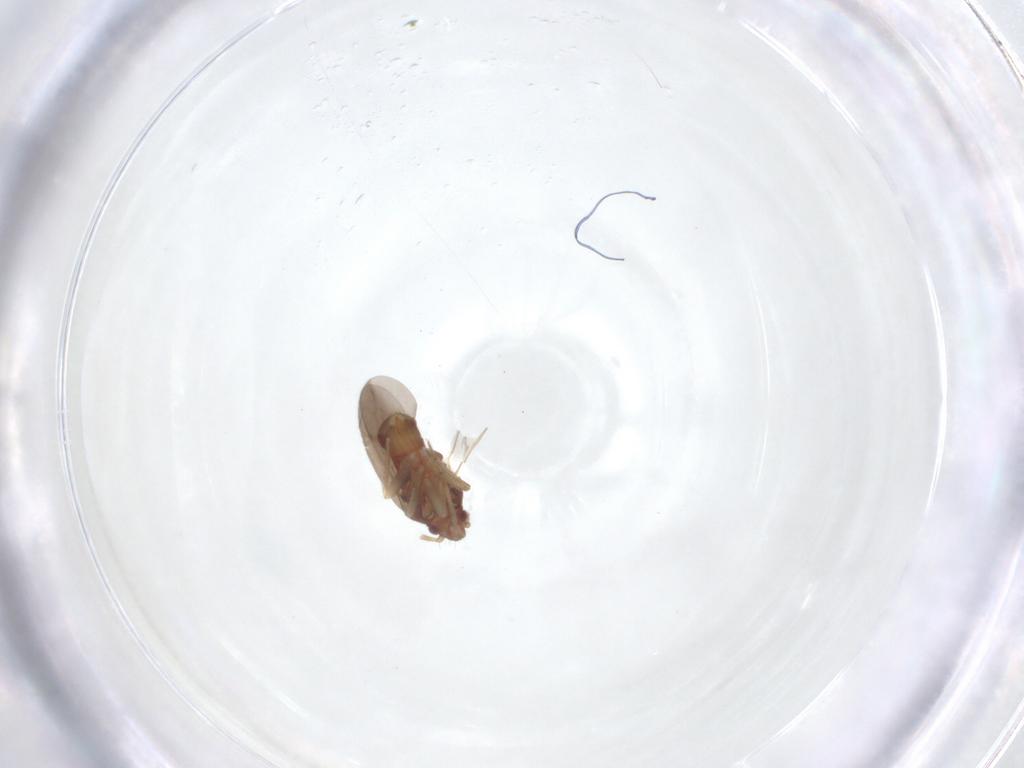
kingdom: Animalia
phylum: Arthropoda
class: Insecta
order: Hemiptera
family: Ceratocombidae
